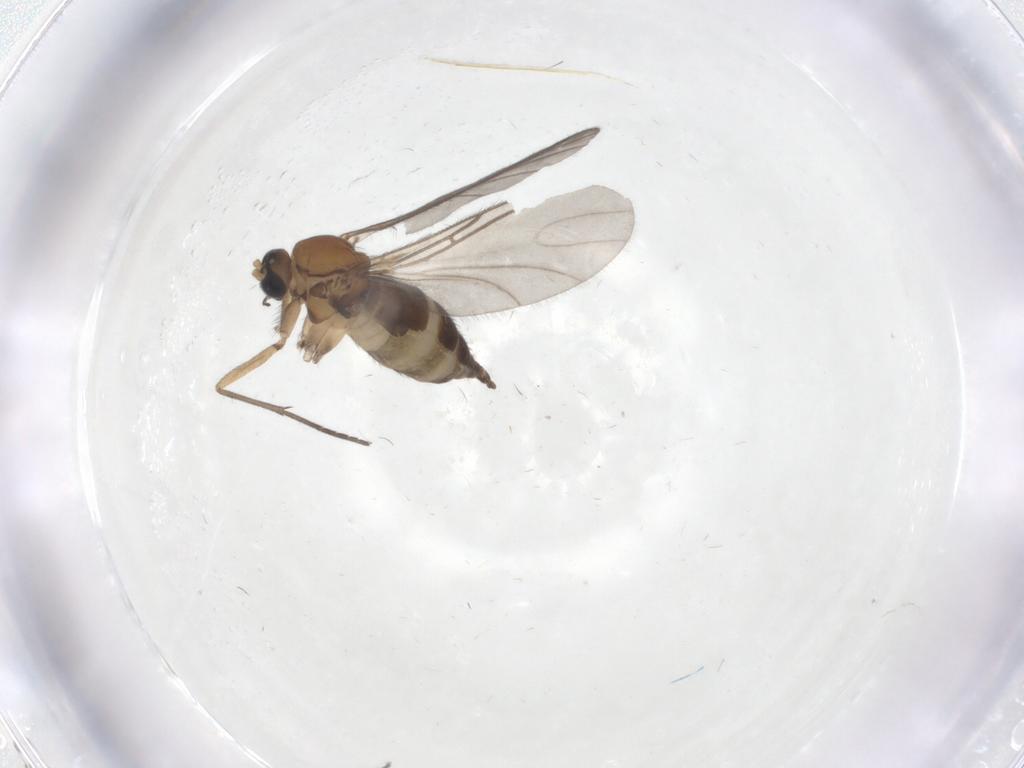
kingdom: Animalia
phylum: Arthropoda
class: Insecta
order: Diptera
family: Sciaridae
